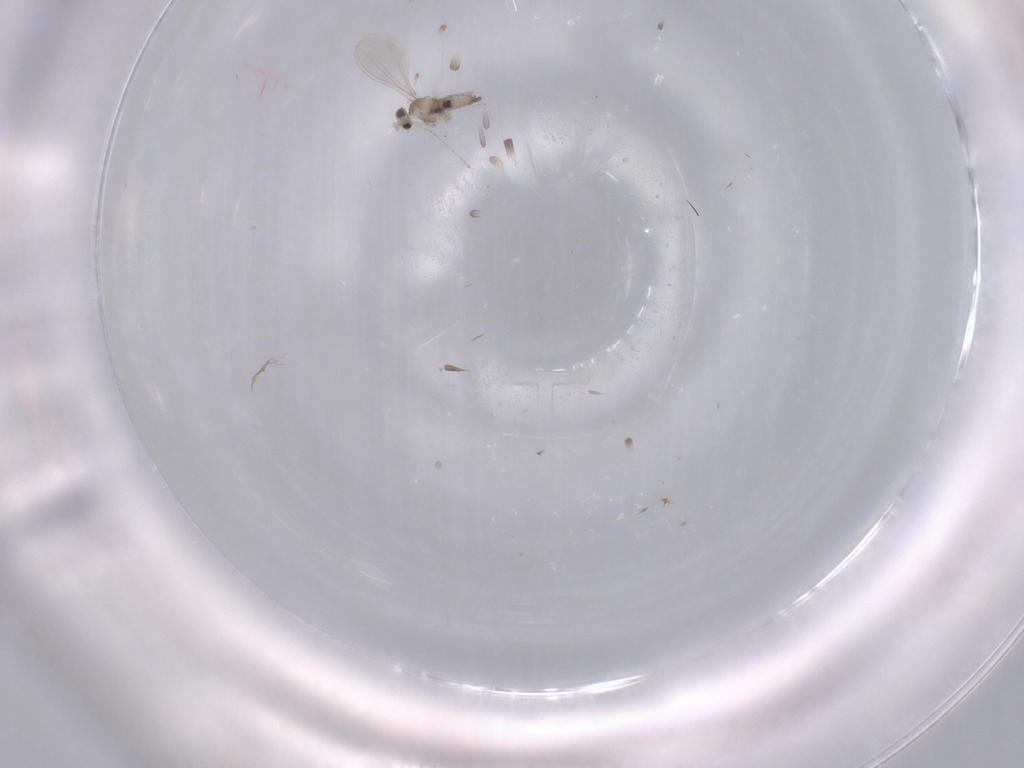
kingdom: Animalia
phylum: Arthropoda
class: Insecta
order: Diptera
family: Cecidomyiidae
